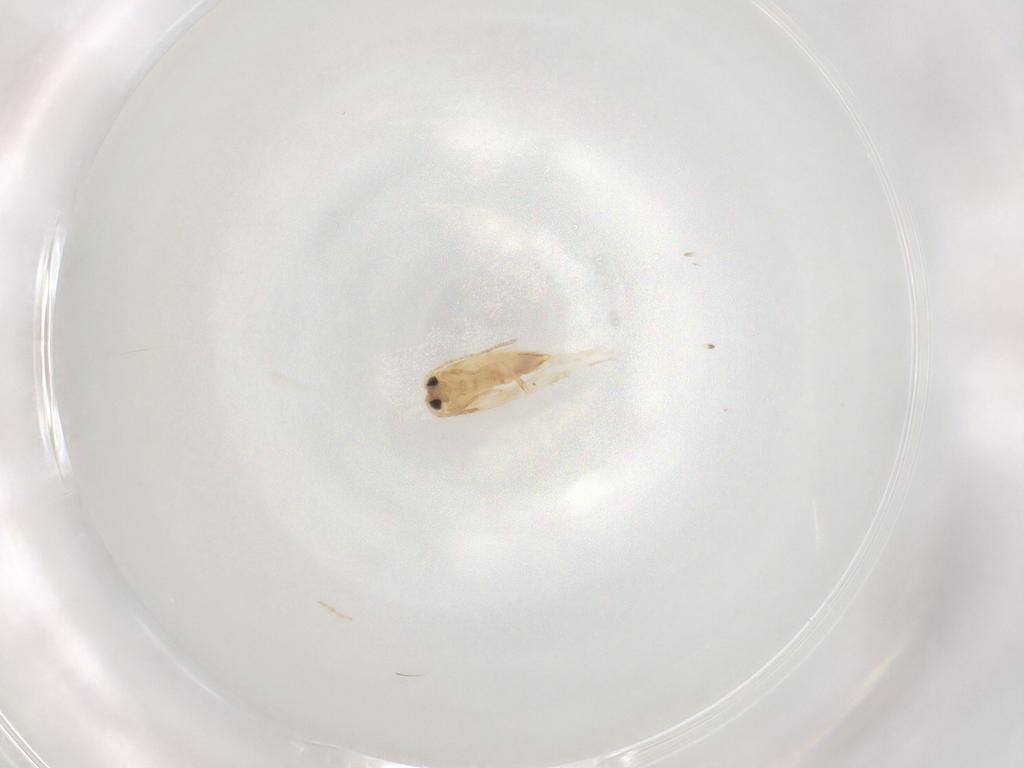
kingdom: Animalia
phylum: Arthropoda
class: Insecta
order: Lepidoptera
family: Nepticulidae
